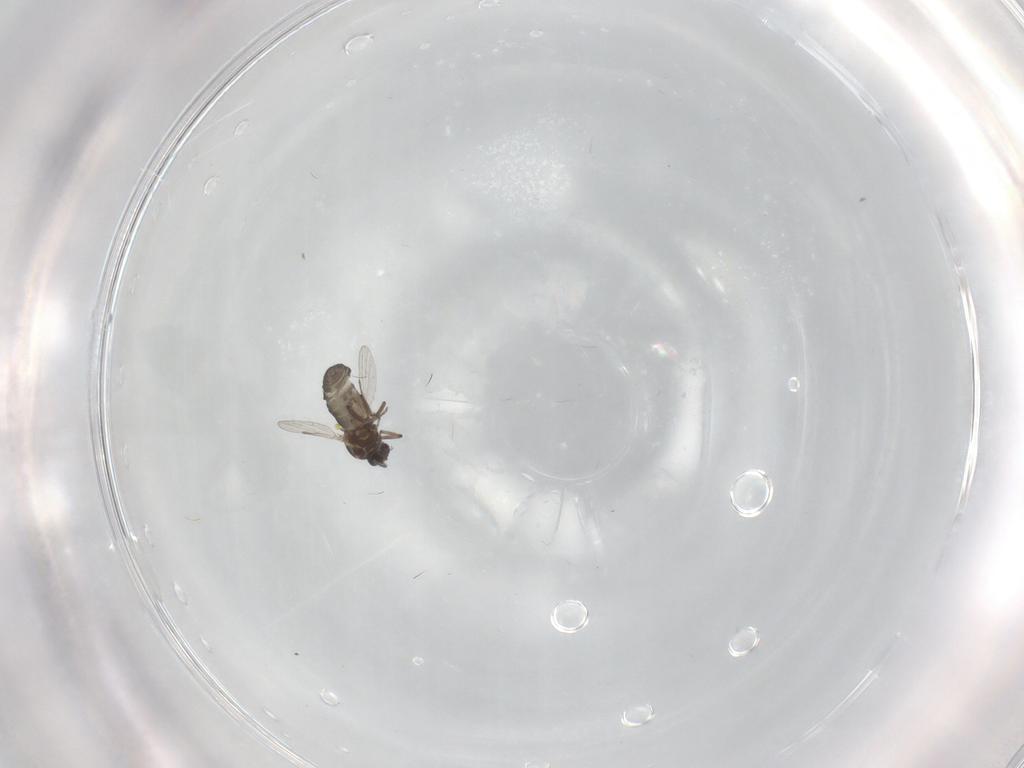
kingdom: Animalia
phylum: Arthropoda
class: Insecta
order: Diptera
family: Ceratopogonidae
